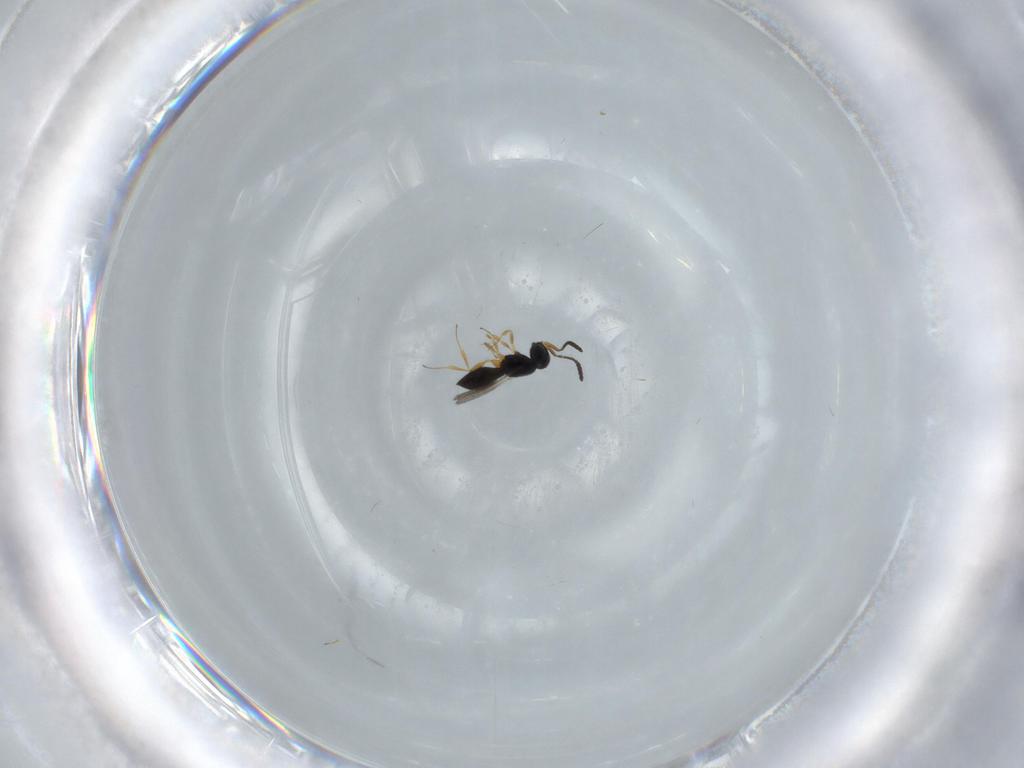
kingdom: Animalia
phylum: Arthropoda
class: Insecta
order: Hymenoptera
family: Scelionidae
